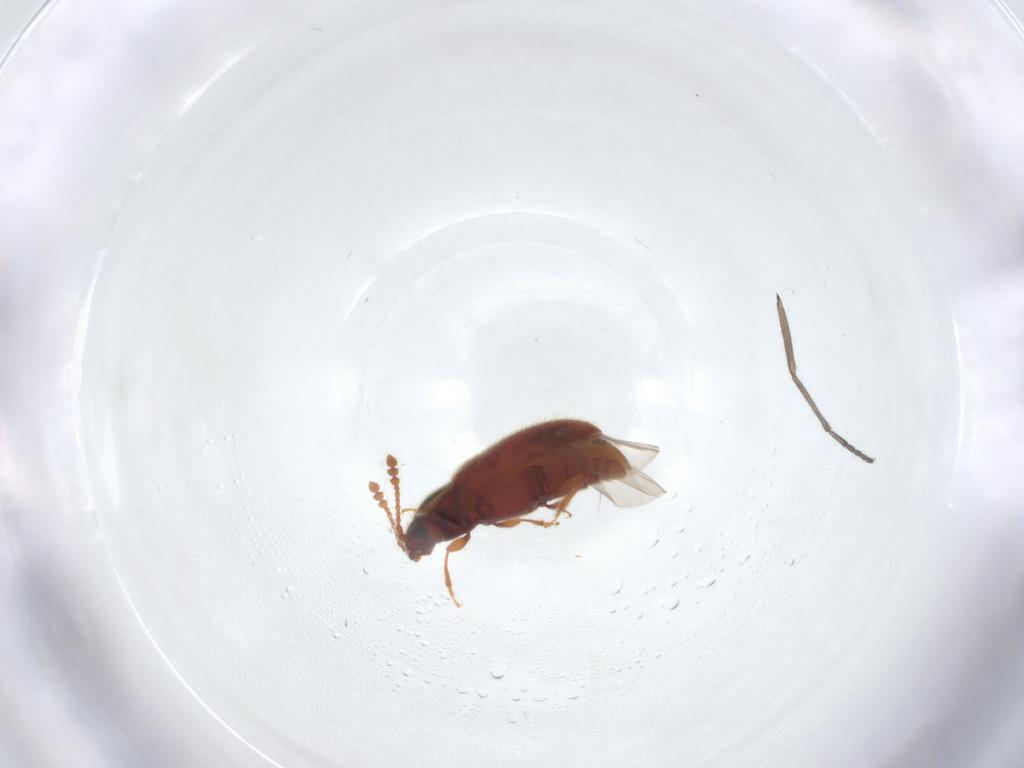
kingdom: Animalia
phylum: Arthropoda
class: Insecta
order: Coleoptera
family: Cryptophagidae
